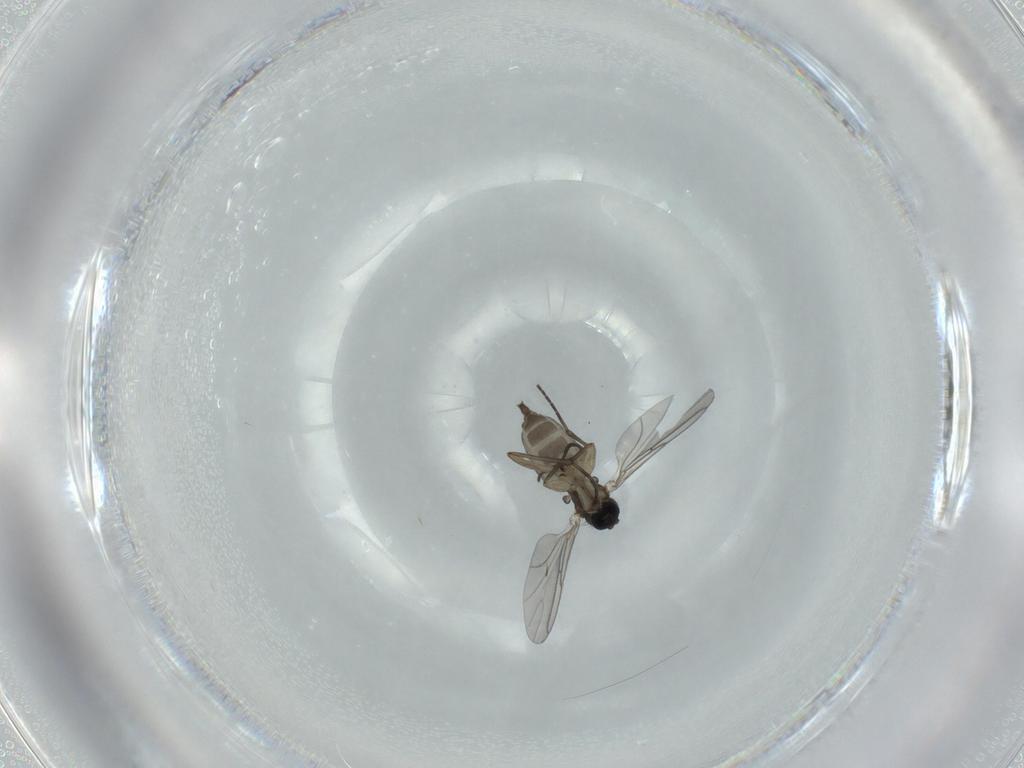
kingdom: Animalia
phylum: Arthropoda
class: Insecta
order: Diptera
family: Sciaridae
